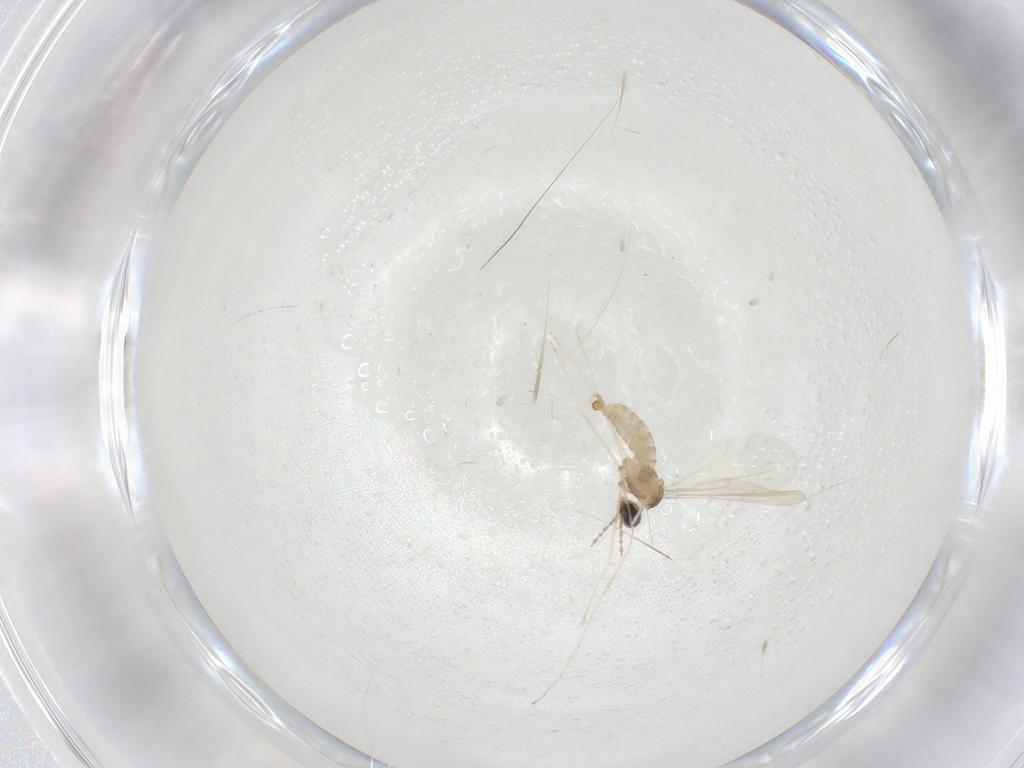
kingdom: Animalia
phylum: Arthropoda
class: Insecta
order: Diptera
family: Cecidomyiidae
